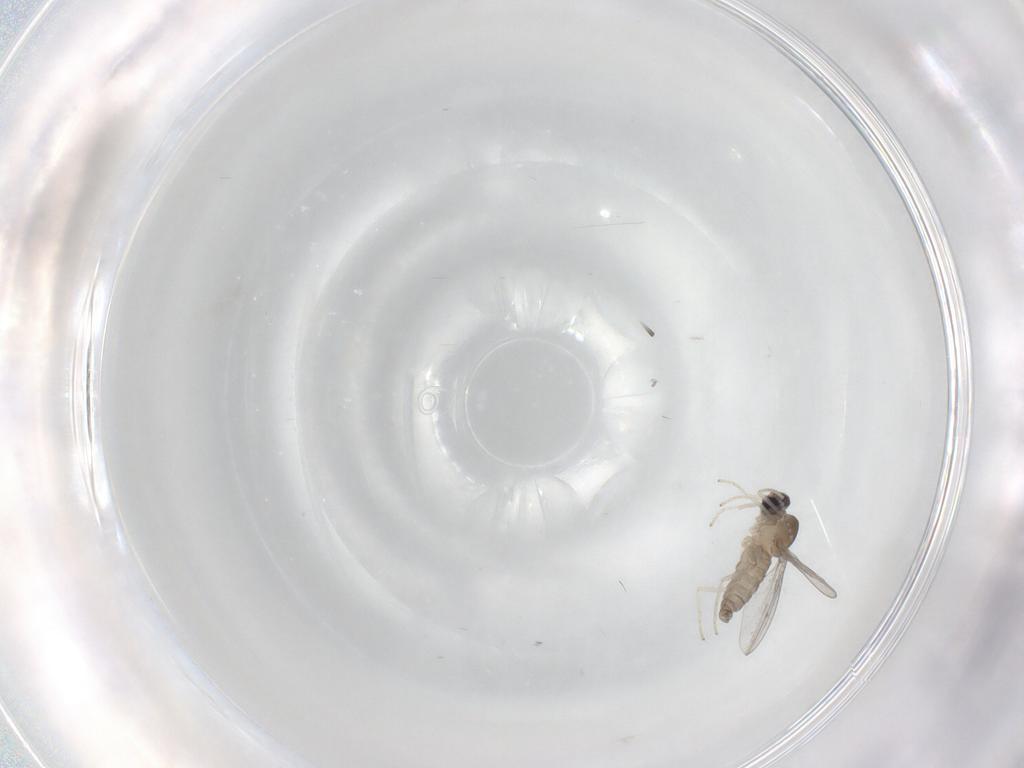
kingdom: Animalia
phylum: Arthropoda
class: Insecta
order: Diptera
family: Cecidomyiidae
